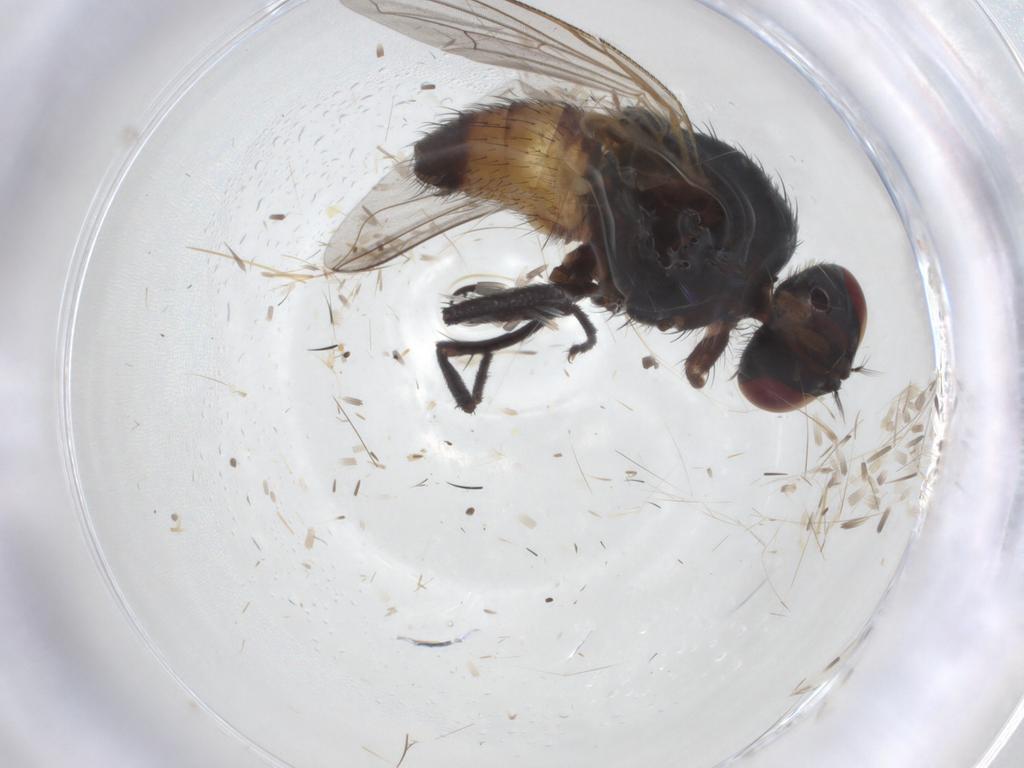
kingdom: Animalia
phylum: Arthropoda
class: Insecta
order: Diptera
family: Muscidae
